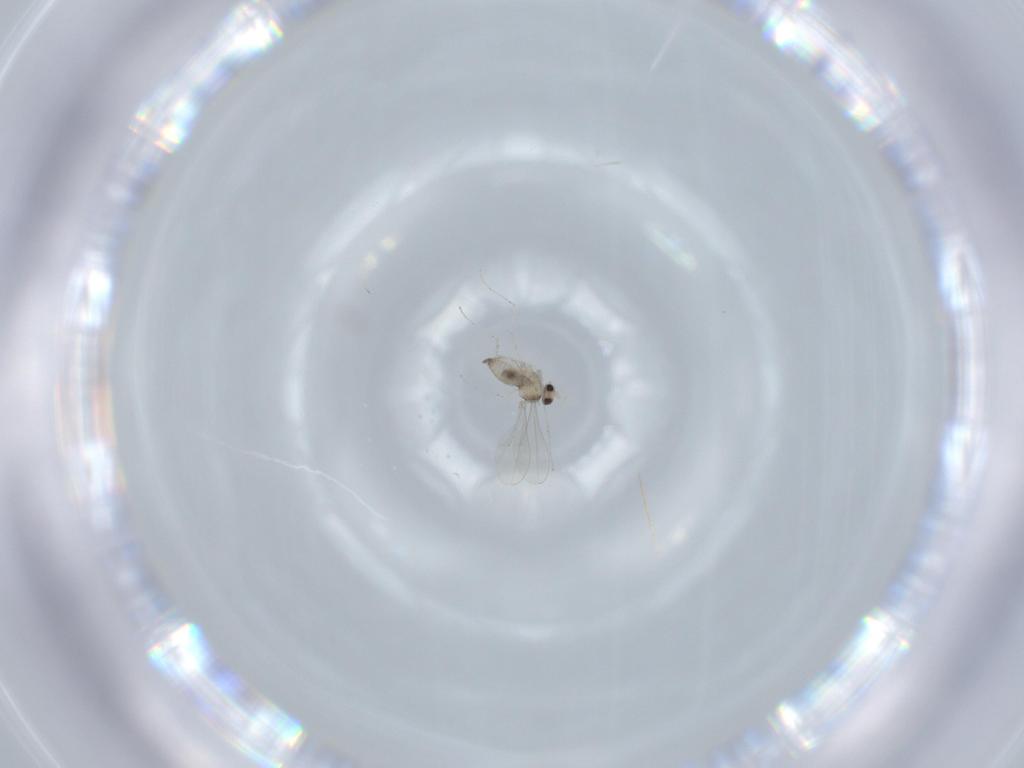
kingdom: Animalia
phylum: Arthropoda
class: Insecta
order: Diptera
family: Cecidomyiidae
